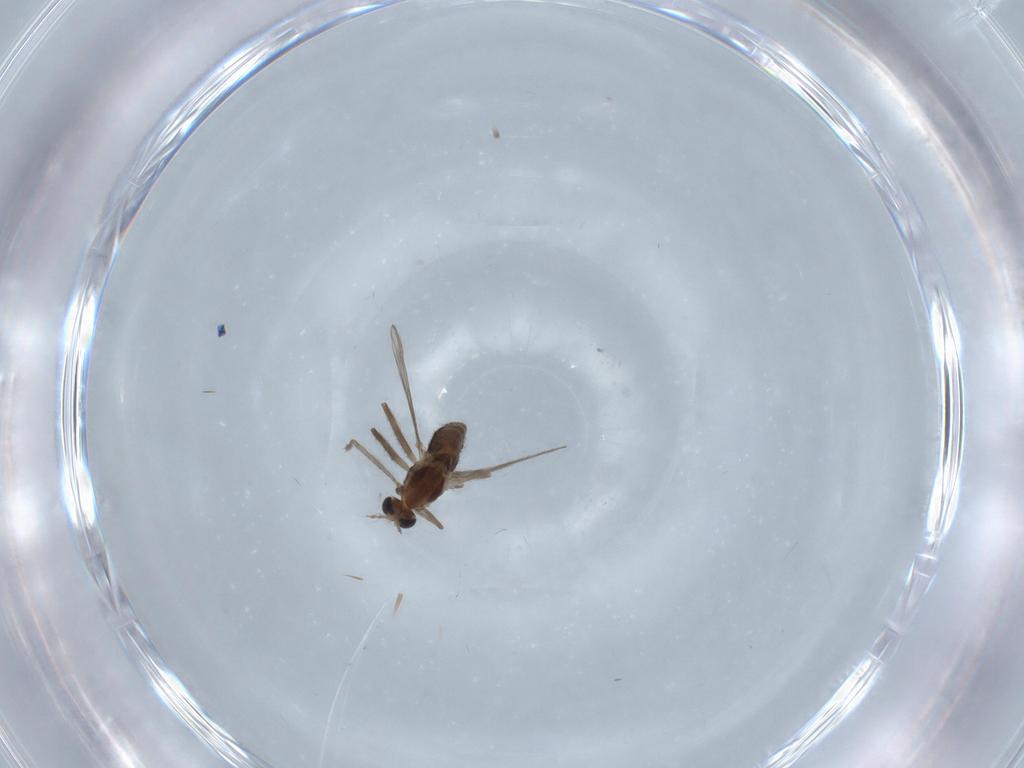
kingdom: Animalia
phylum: Arthropoda
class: Insecta
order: Diptera
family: Chironomidae
